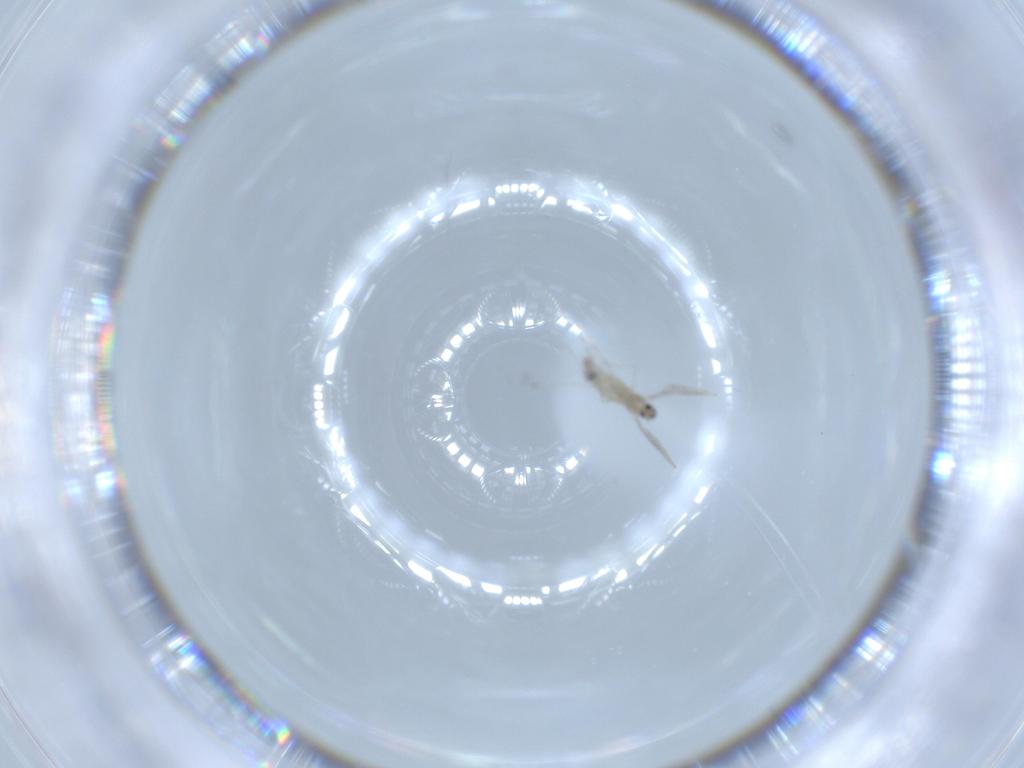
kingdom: Animalia
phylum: Arthropoda
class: Insecta
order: Diptera
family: Cecidomyiidae
